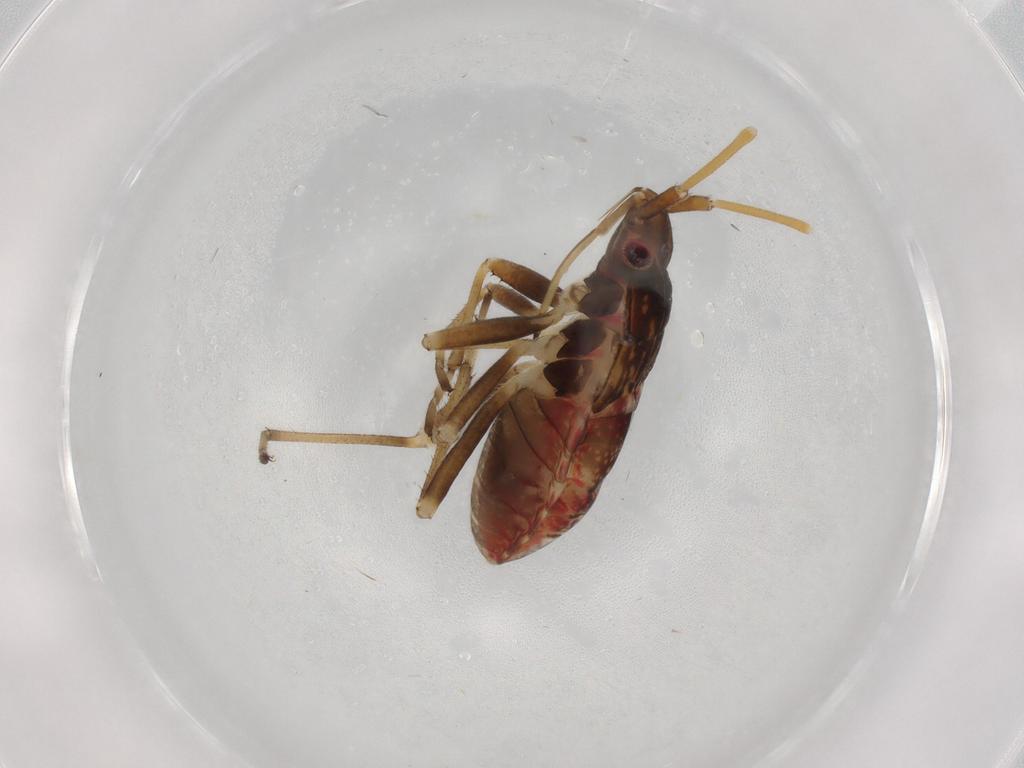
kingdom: Animalia
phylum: Arthropoda
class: Insecta
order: Hemiptera
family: Rhyparochromidae
